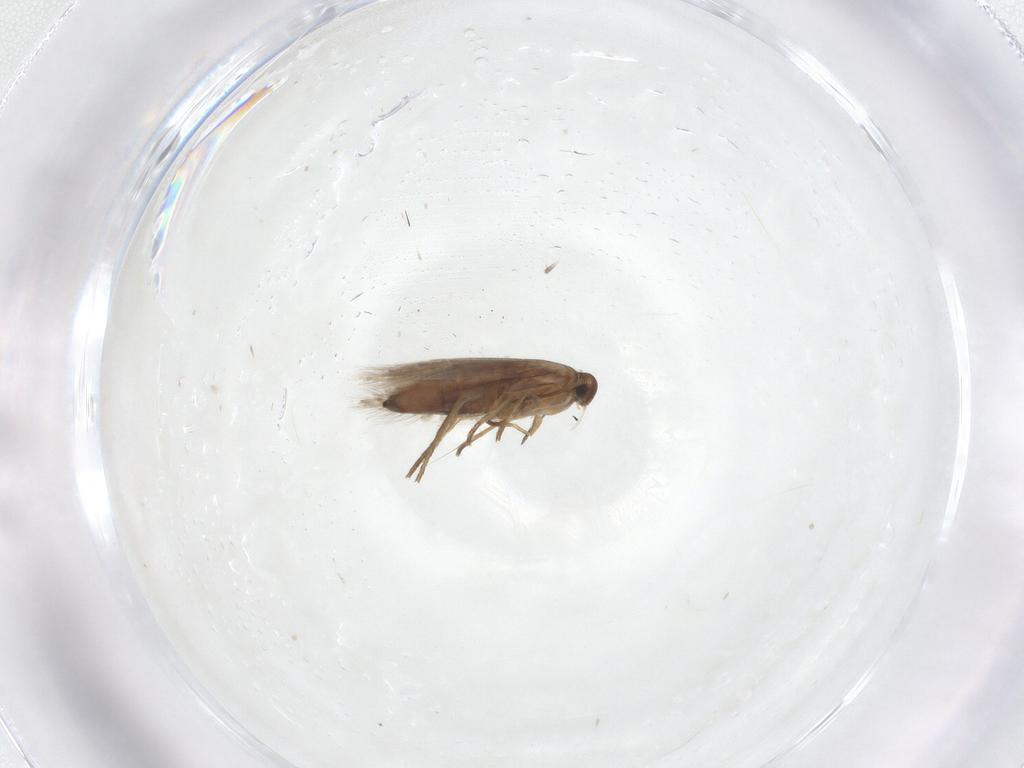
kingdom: Animalia
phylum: Arthropoda
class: Insecta
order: Lepidoptera
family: Heliozelidae
